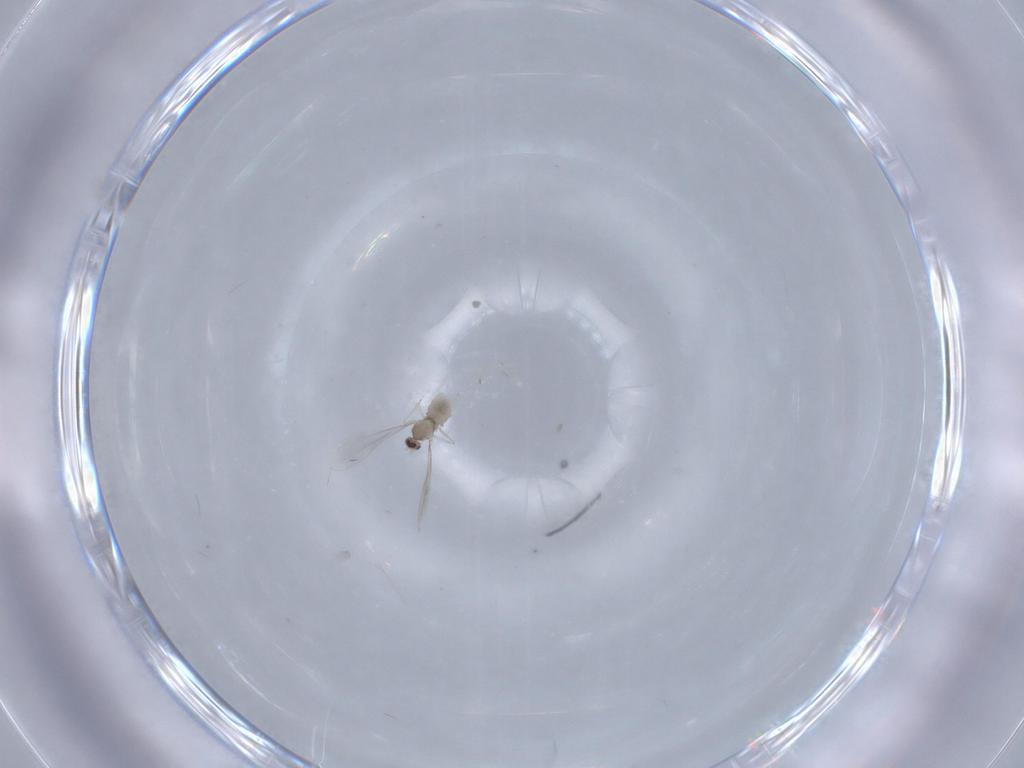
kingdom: Animalia
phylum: Arthropoda
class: Insecta
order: Diptera
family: Cecidomyiidae
